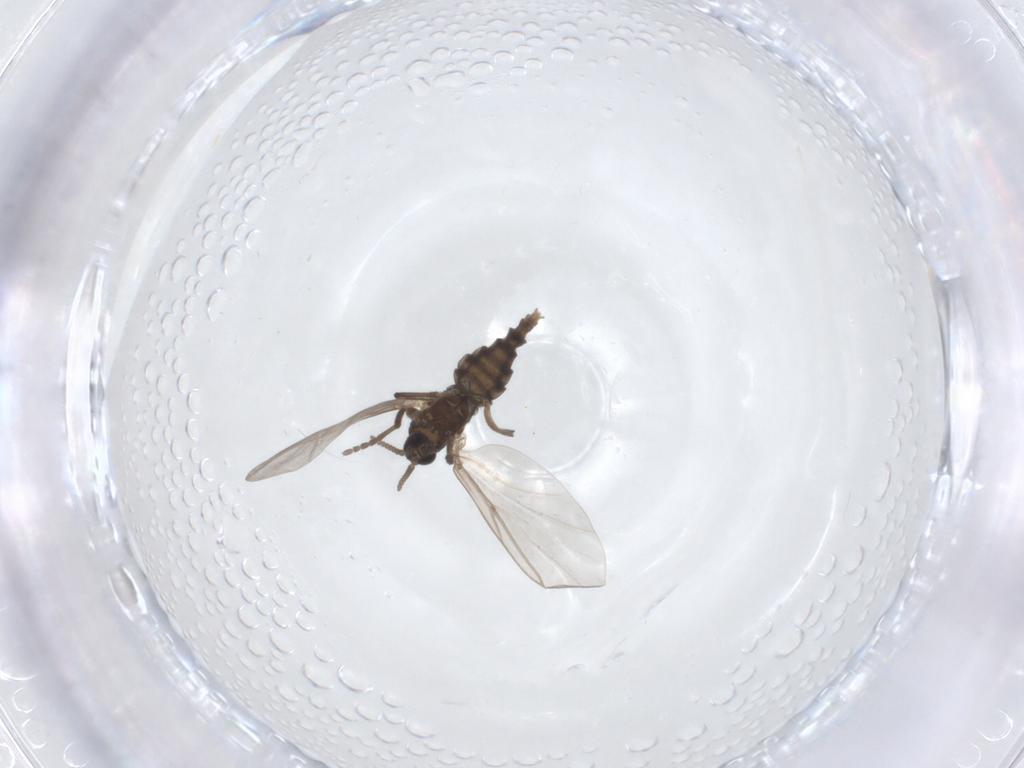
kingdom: Animalia
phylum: Arthropoda
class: Insecta
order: Diptera
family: Cecidomyiidae
